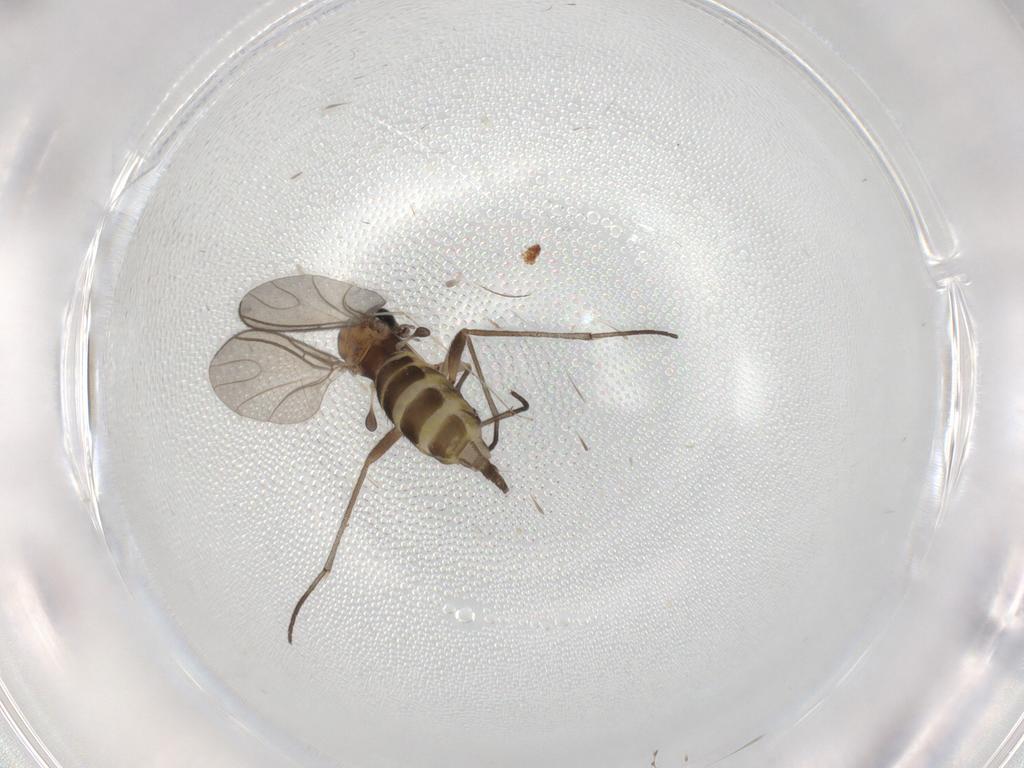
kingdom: Animalia
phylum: Arthropoda
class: Insecta
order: Diptera
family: Sciaridae
